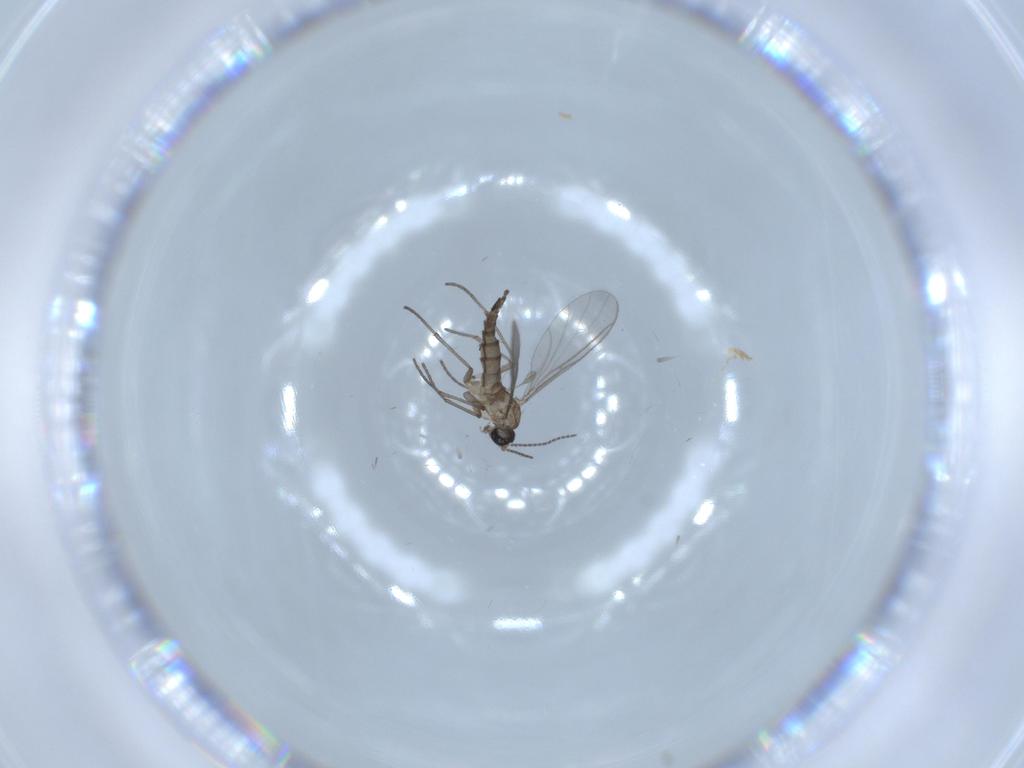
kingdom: Animalia
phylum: Arthropoda
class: Insecta
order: Diptera
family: Sciaridae
